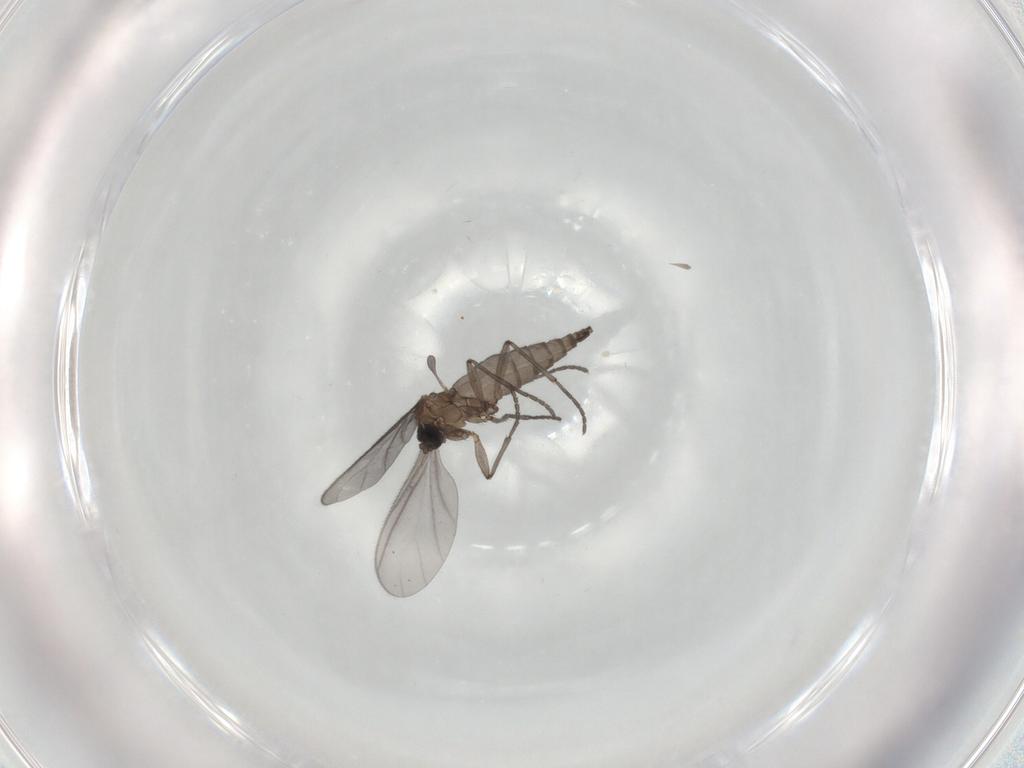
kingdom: Animalia
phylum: Arthropoda
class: Insecta
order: Diptera
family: Sciaridae
